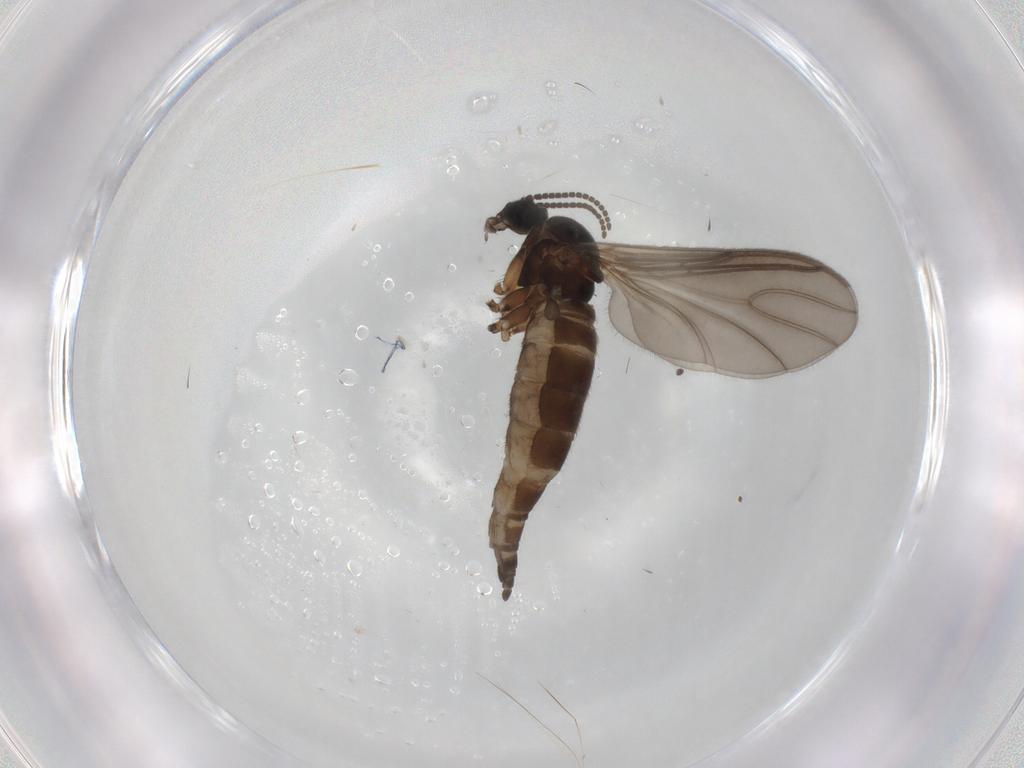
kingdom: Animalia
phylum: Arthropoda
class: Insecta
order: Diptera
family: Sciaridae
